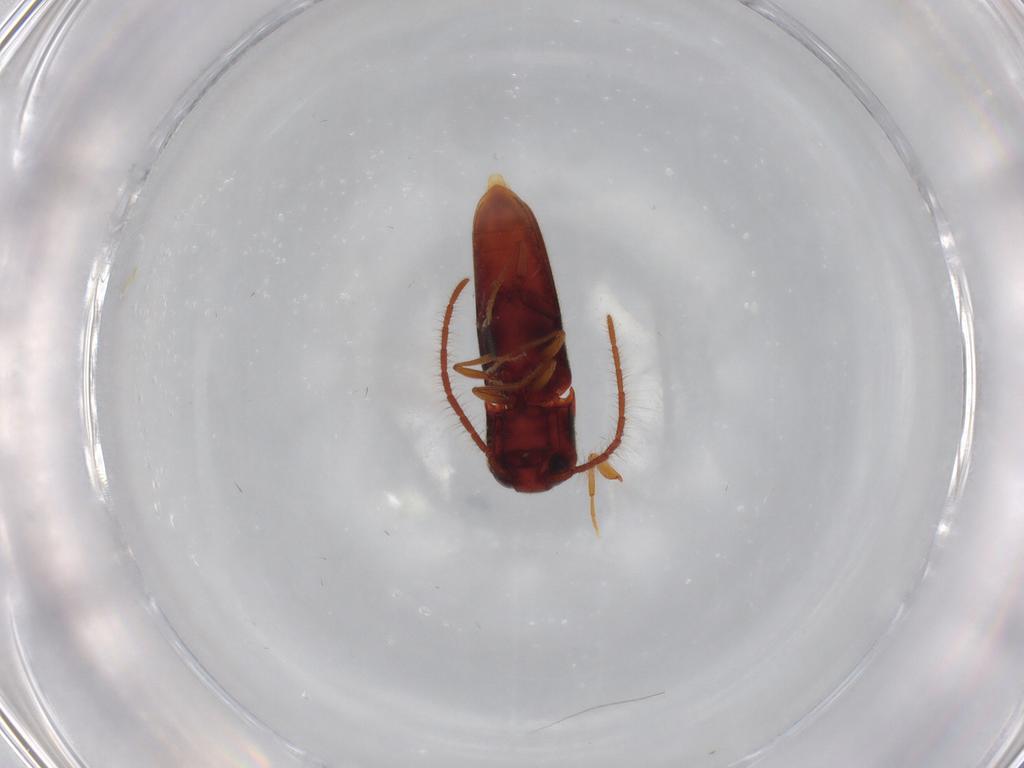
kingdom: Animalia
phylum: Arthropoda
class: Insecta
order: Coleoptera
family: Eucnemidae
